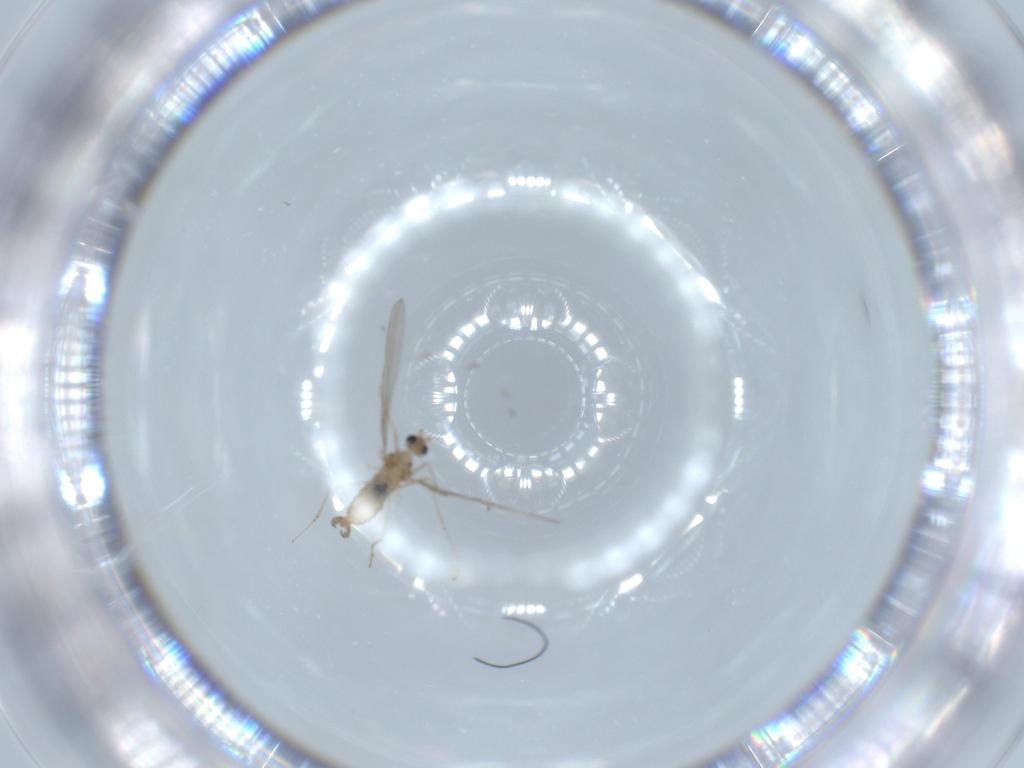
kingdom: Animalia
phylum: Arthropoda
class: Insecta
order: Diptera
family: Cecidomyiidae
